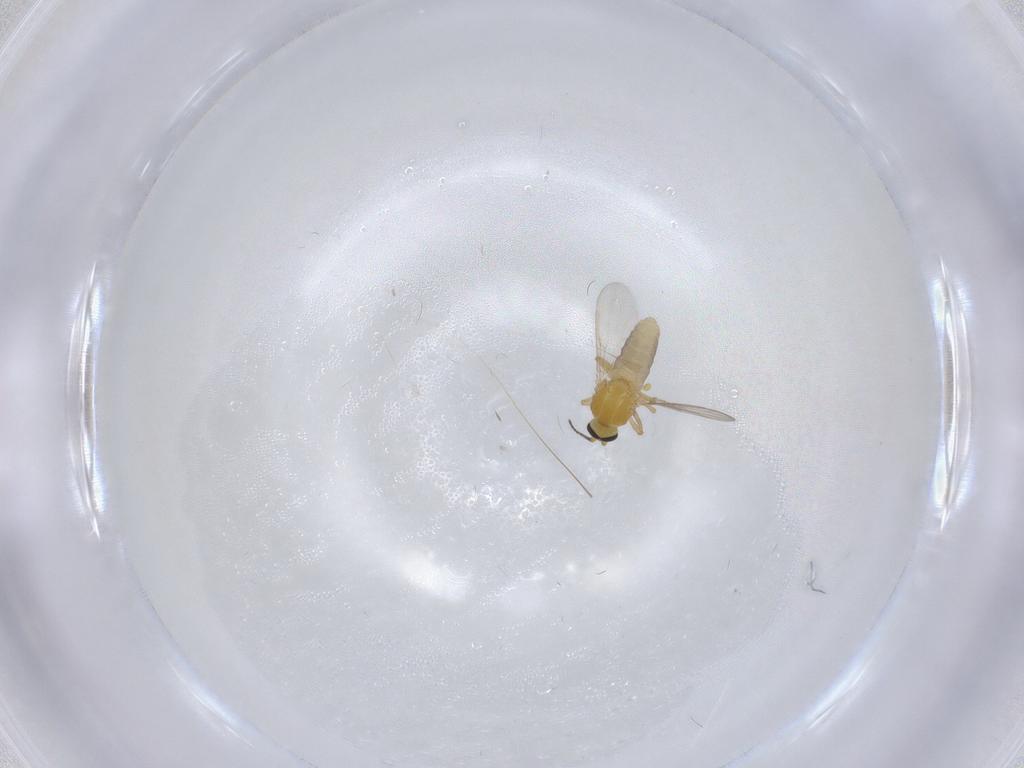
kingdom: Animalia
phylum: Arthropoda
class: Insecta
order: Diptera
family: Ceratopogonidae
